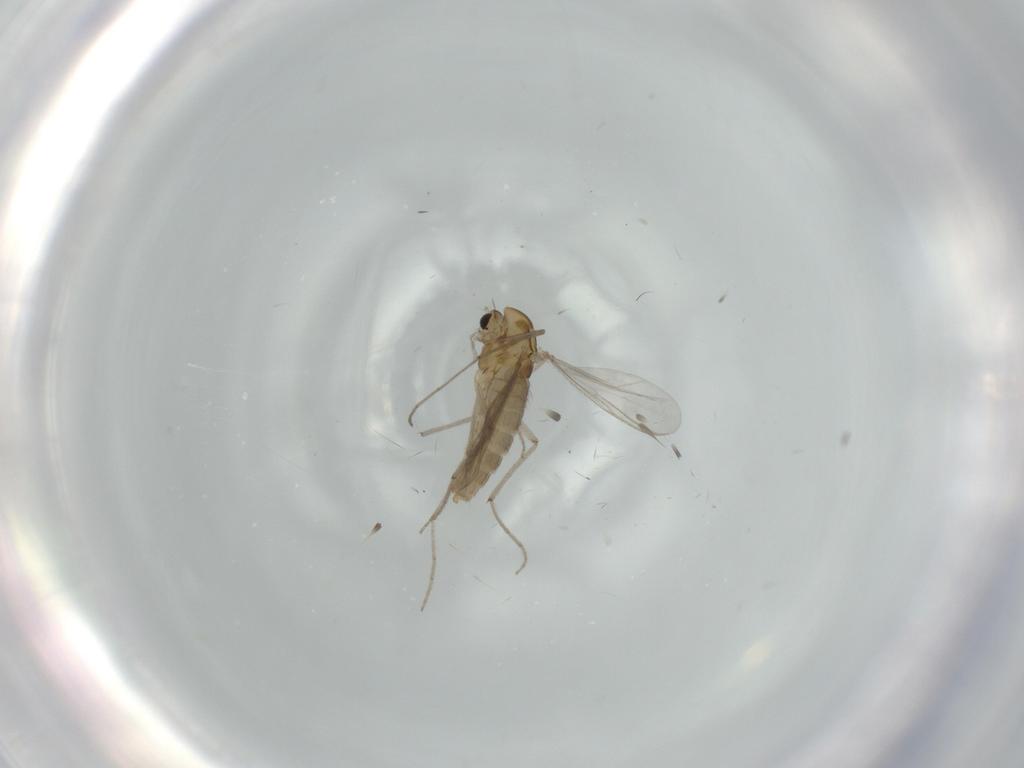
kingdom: Animalia
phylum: Arthropoda
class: Insecta
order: Diptera
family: Chironomidae
